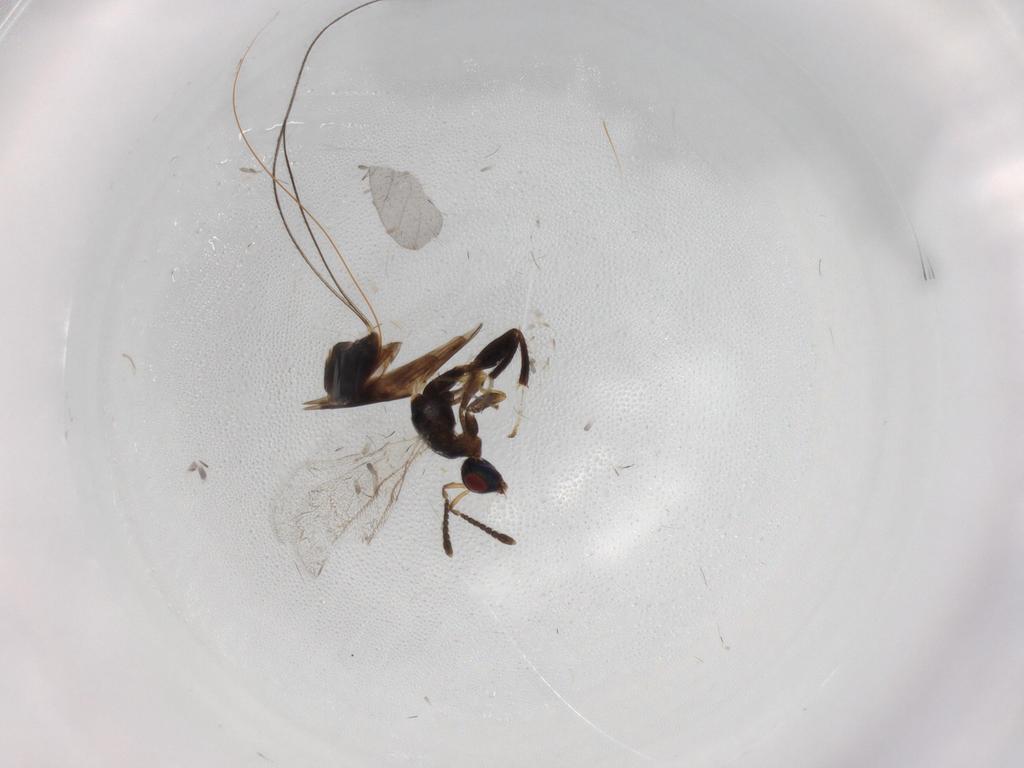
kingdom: Animalia
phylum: Arthropoda
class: Insecta
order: Hymenoptera
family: Torymidae
